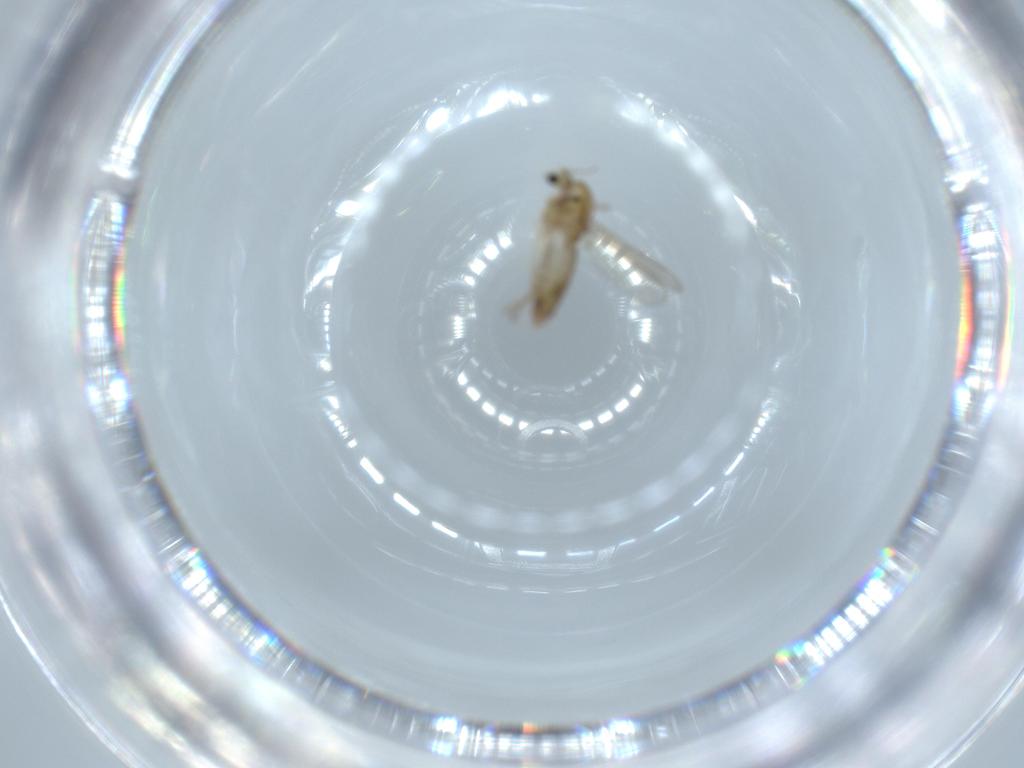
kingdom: Animalia
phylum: Arthropoda
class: Insecta
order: Diptera
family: Chironomidae
